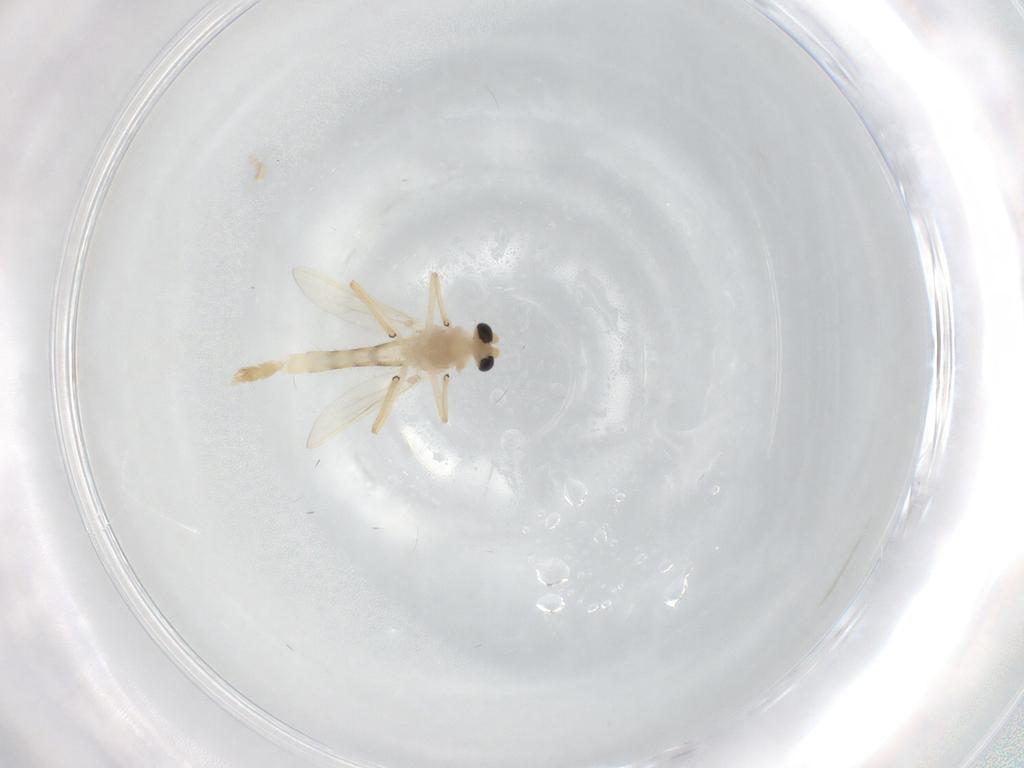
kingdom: Animalia
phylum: Arthropoda
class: Insecta
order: Diptera
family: Chironomidae
